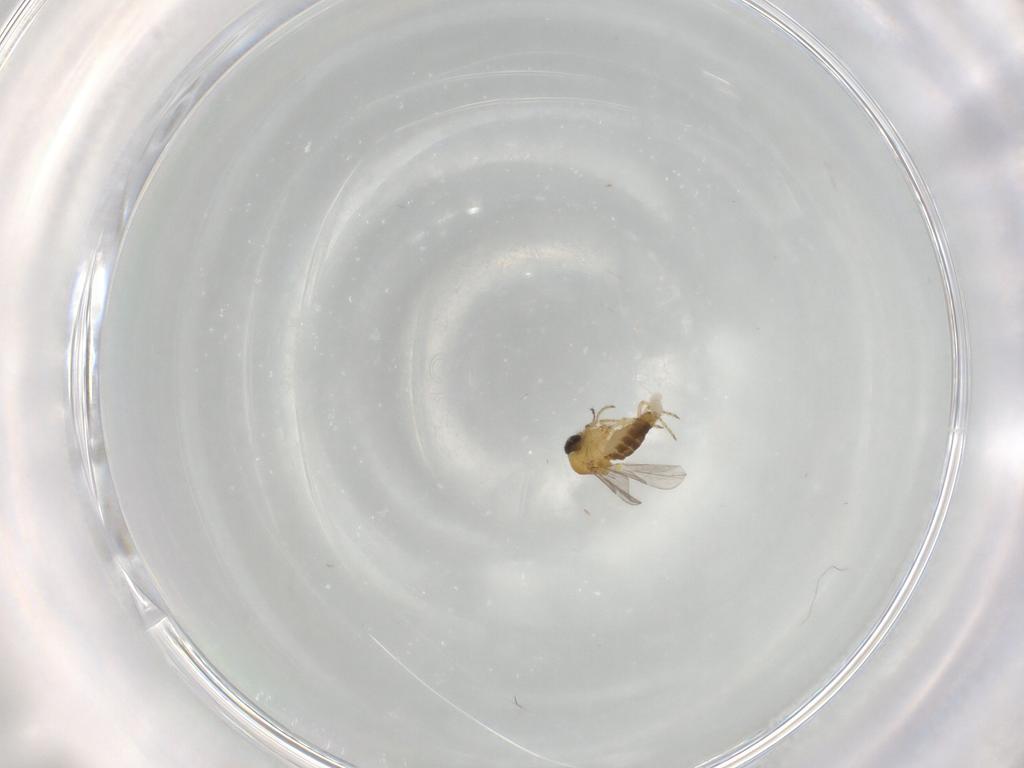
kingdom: Animalia
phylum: Arthropoda
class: Insecta
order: Diptera
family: Ceratopogonidae
